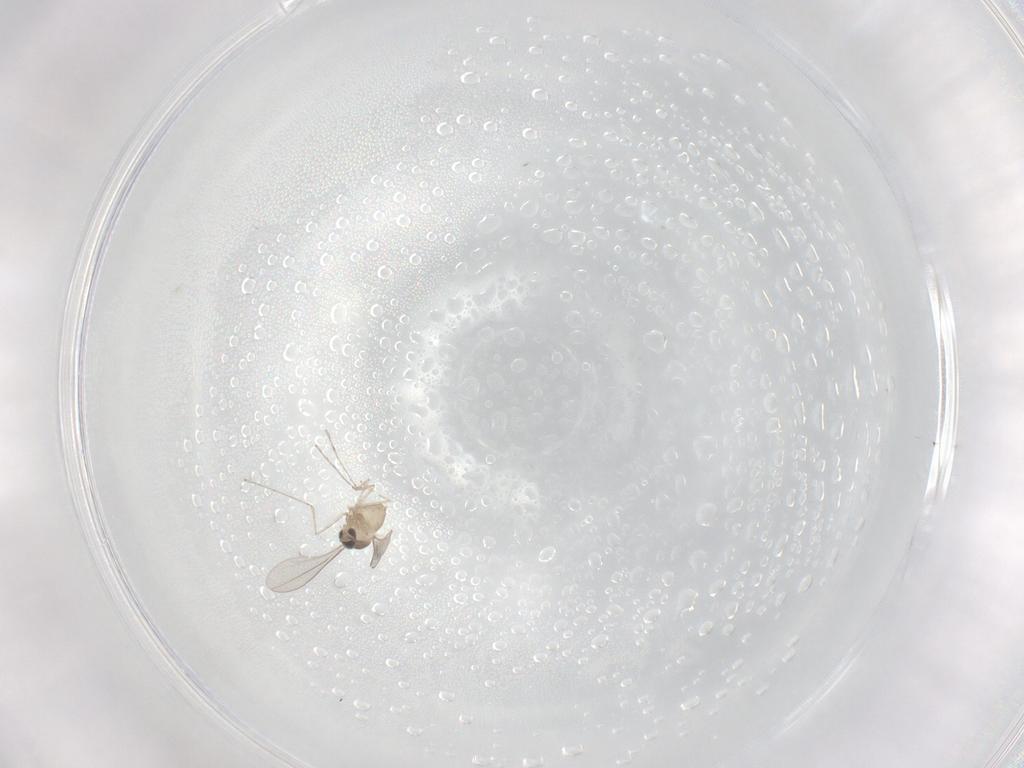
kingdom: Animalia
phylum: Arthropoda
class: Insecta
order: Diptera
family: Cecidomyiidae
